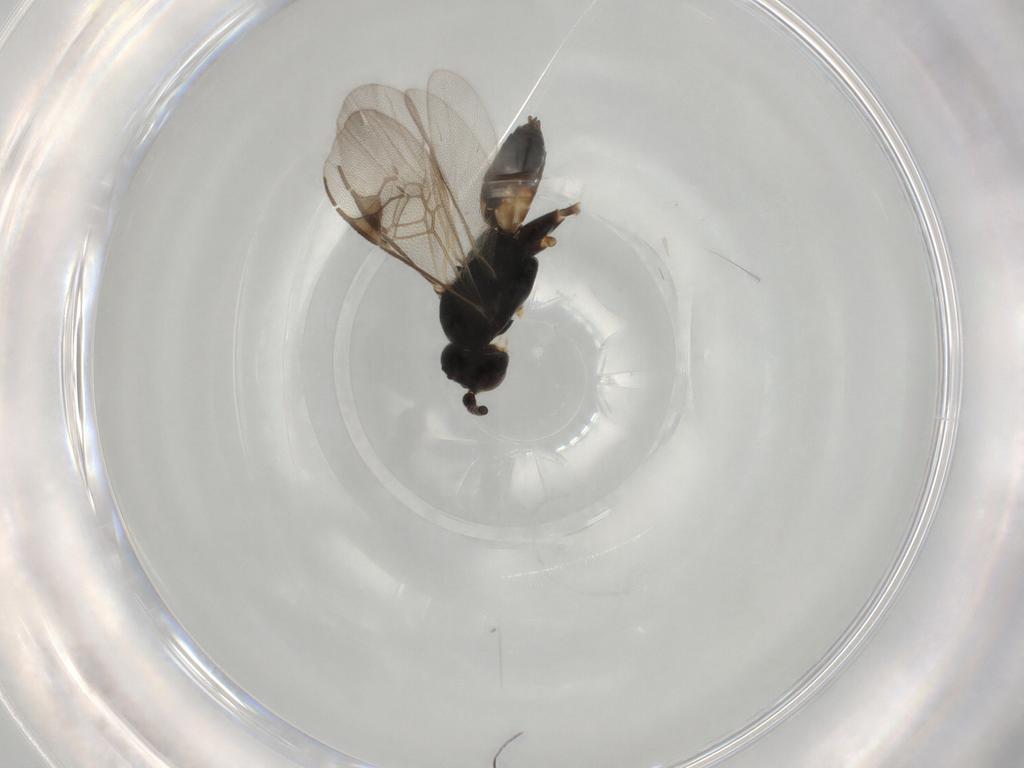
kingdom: Animalia
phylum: Arthropoda
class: Insecta
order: Hymenoptera
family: Braconidae
